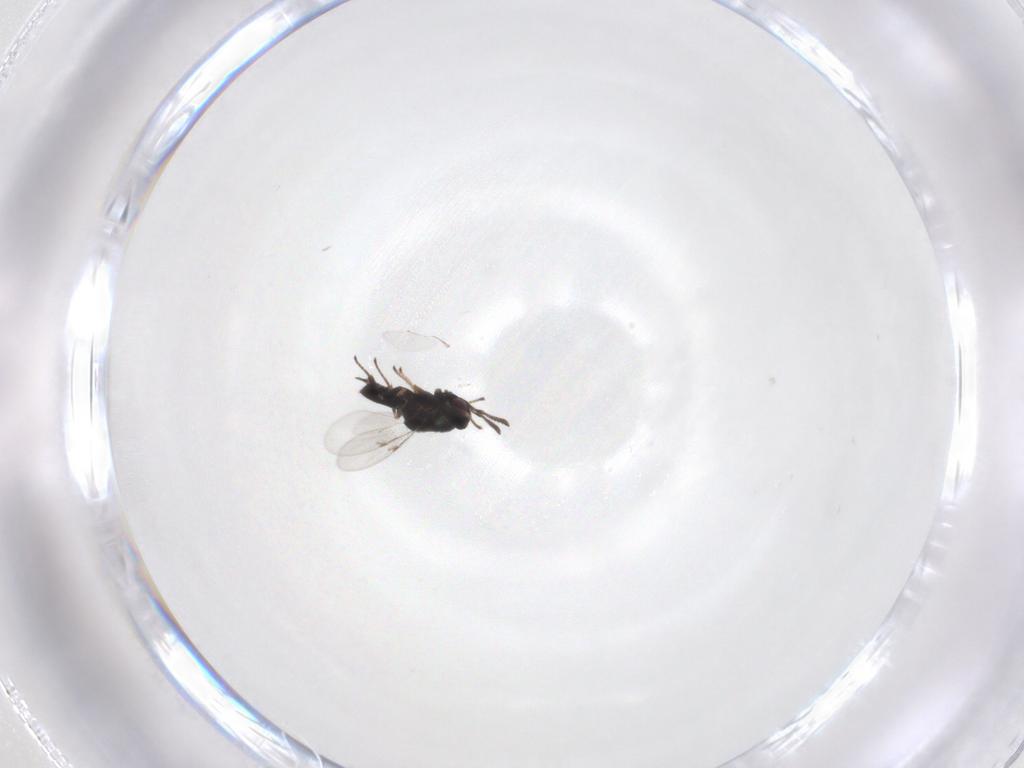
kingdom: Animalia
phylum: Arthropoda
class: Insecta
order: Hymenoptera
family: Encyrtidae
